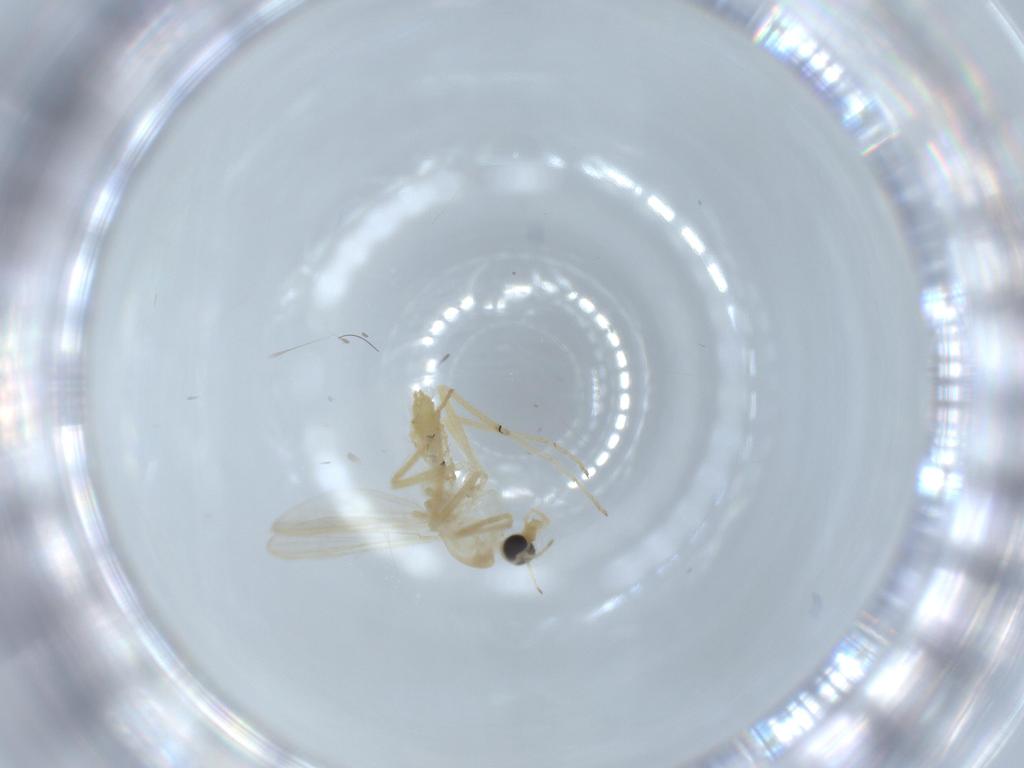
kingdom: Animalia
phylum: Arthropoda
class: Insecta
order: Diptera
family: Chironomidae
